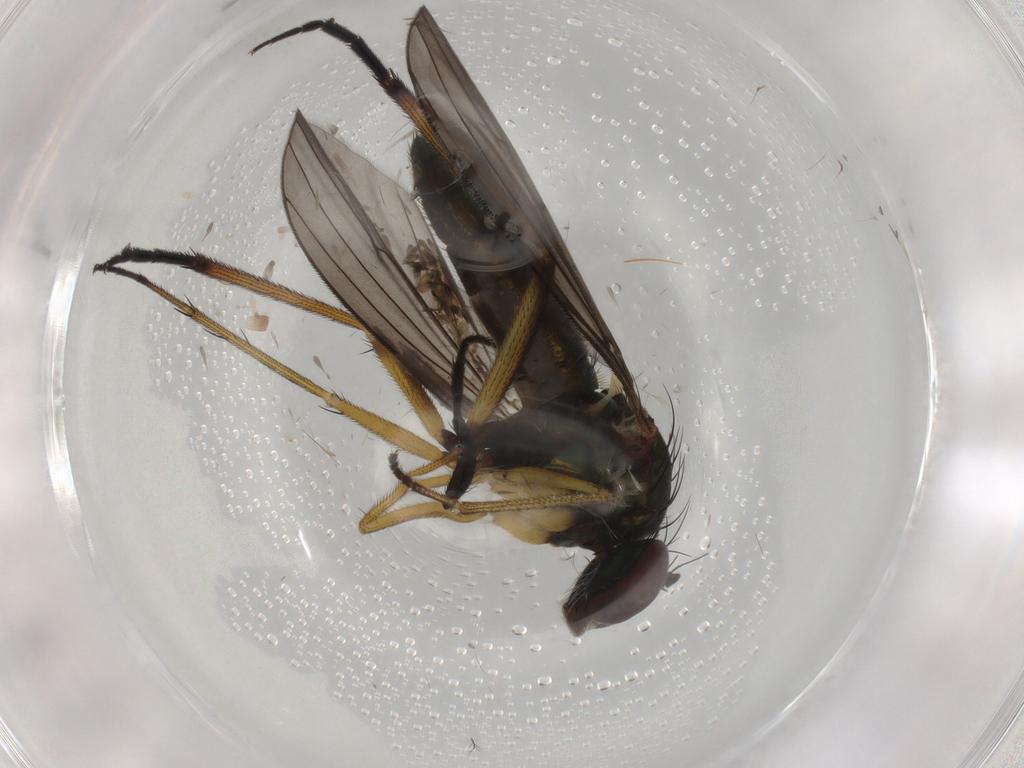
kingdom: Animalia
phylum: Arthropoda
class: Insecta
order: Diptera
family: Dolichopodidae
